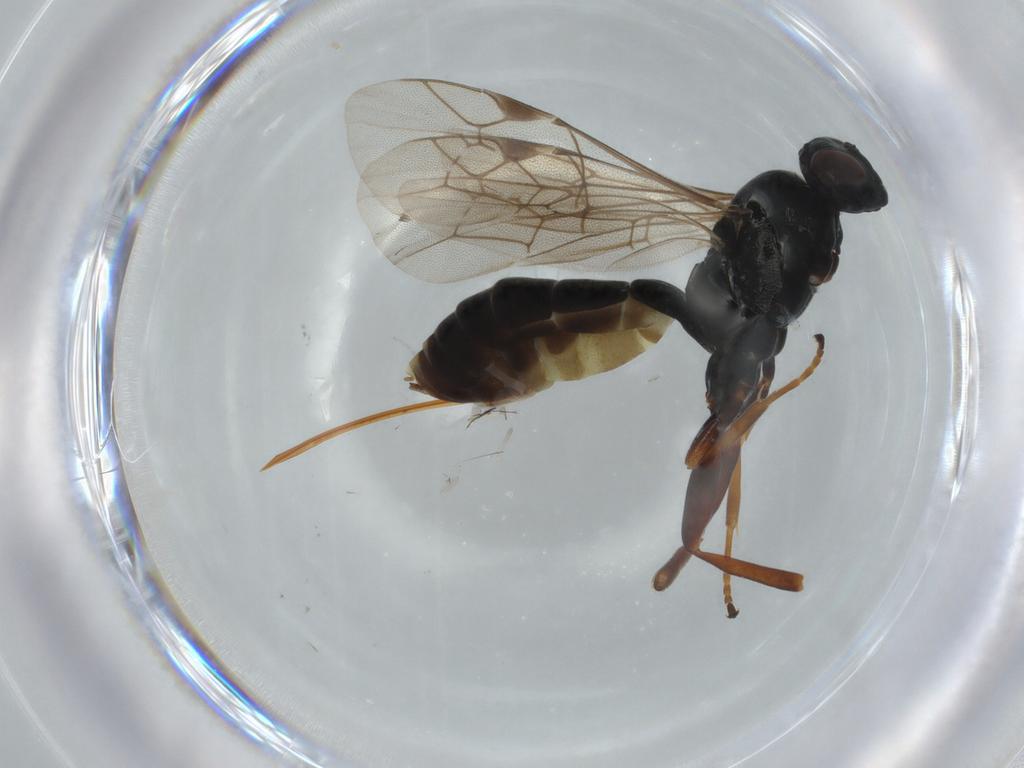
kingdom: Animalia
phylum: Arthropoda
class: Insecta
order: Hymenoptera
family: Ichneumonidae
